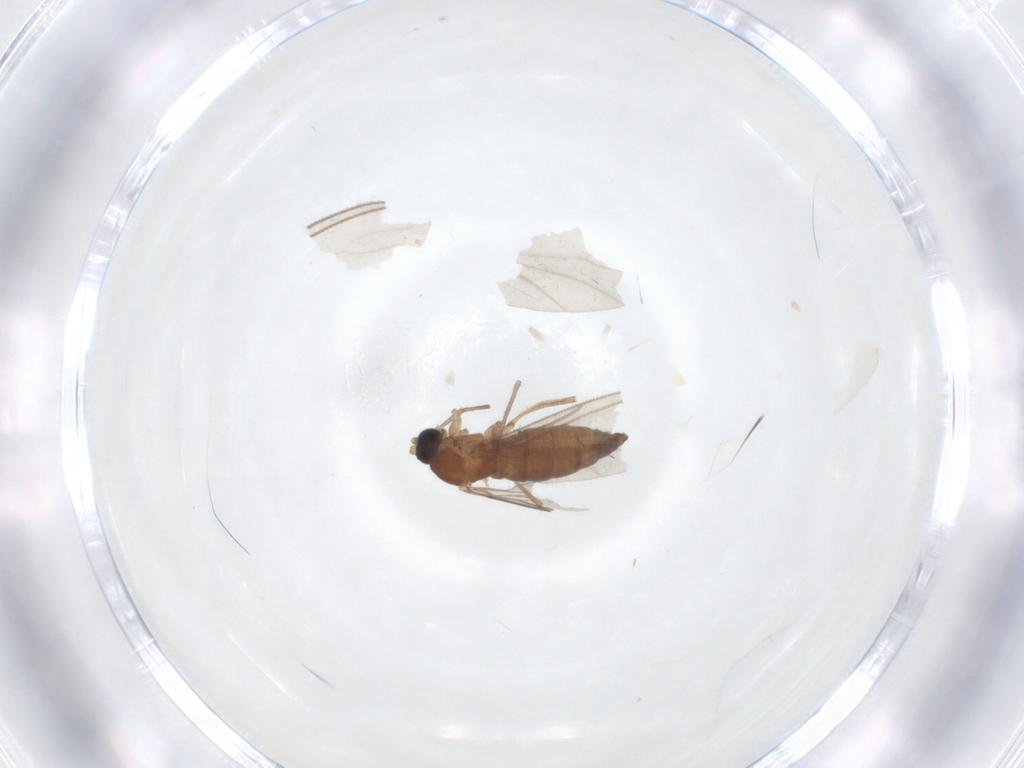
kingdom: Animalia
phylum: Arthropoda
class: Insecta
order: Diptera
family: Sciaridae
